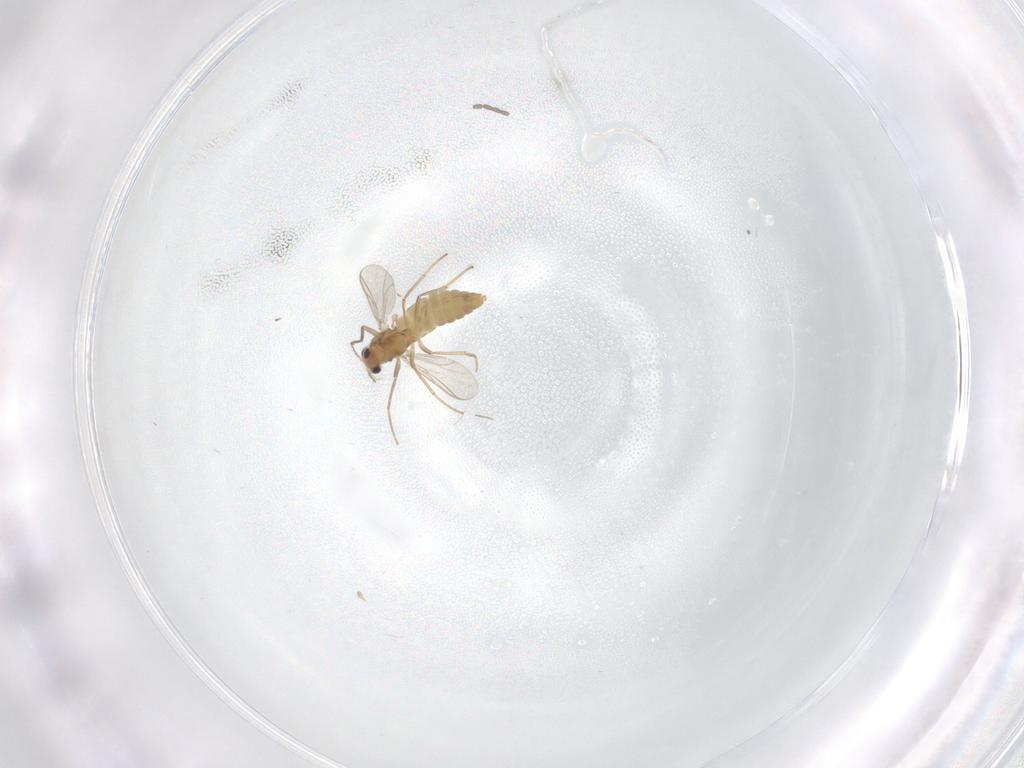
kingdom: Animalia
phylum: Arthropoda
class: Insecta
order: Diptera
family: Chironomidae
